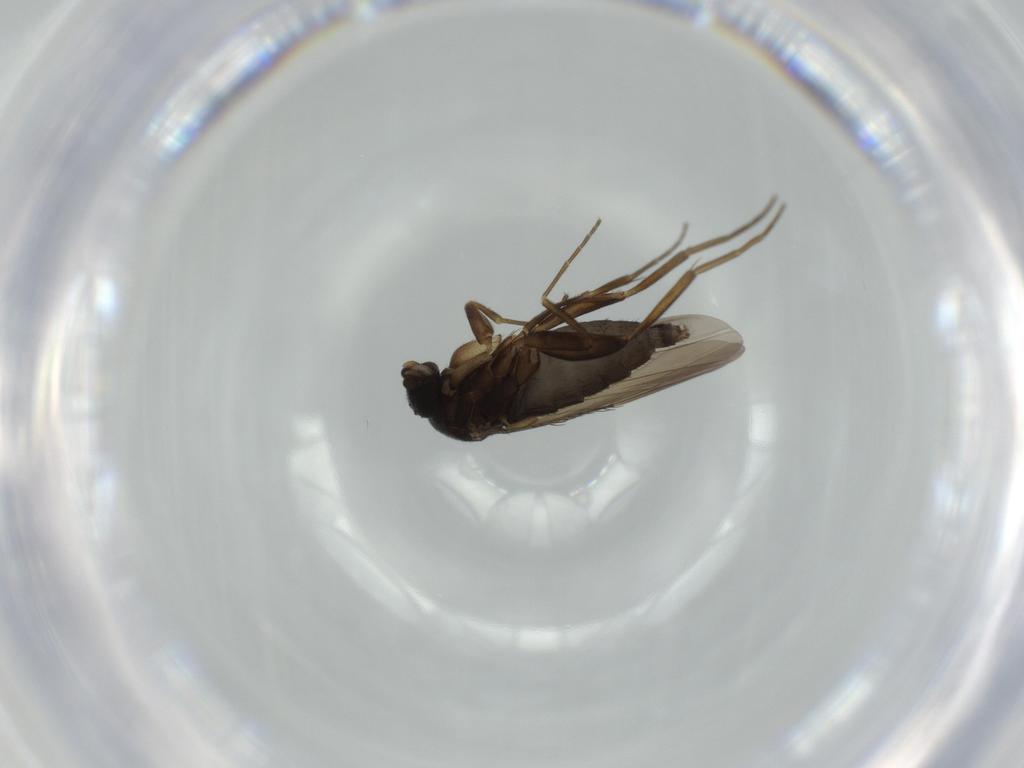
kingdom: Animalia
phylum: Arthropoda
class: Insecta
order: Diptera
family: Phoridae
